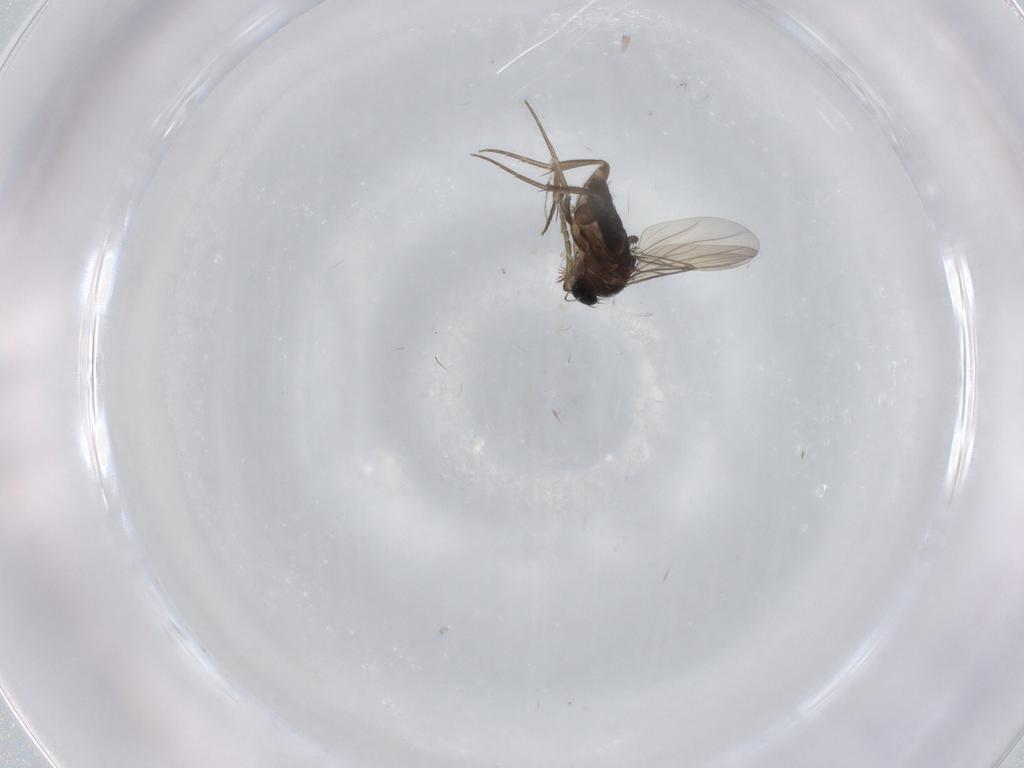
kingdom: Animalia
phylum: Arthropoda
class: Insecta
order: Diptera
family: Phoridae
